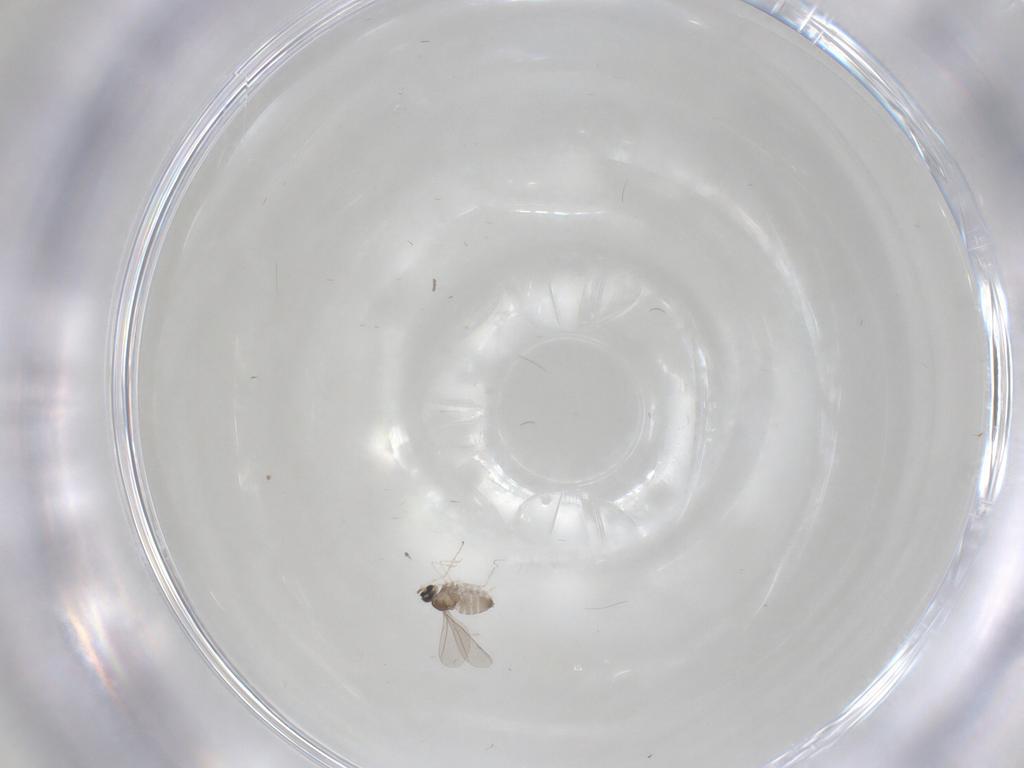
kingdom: Animalia
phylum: Arthropoda
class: Insecta
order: Diptera
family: Cecidomyiidae
